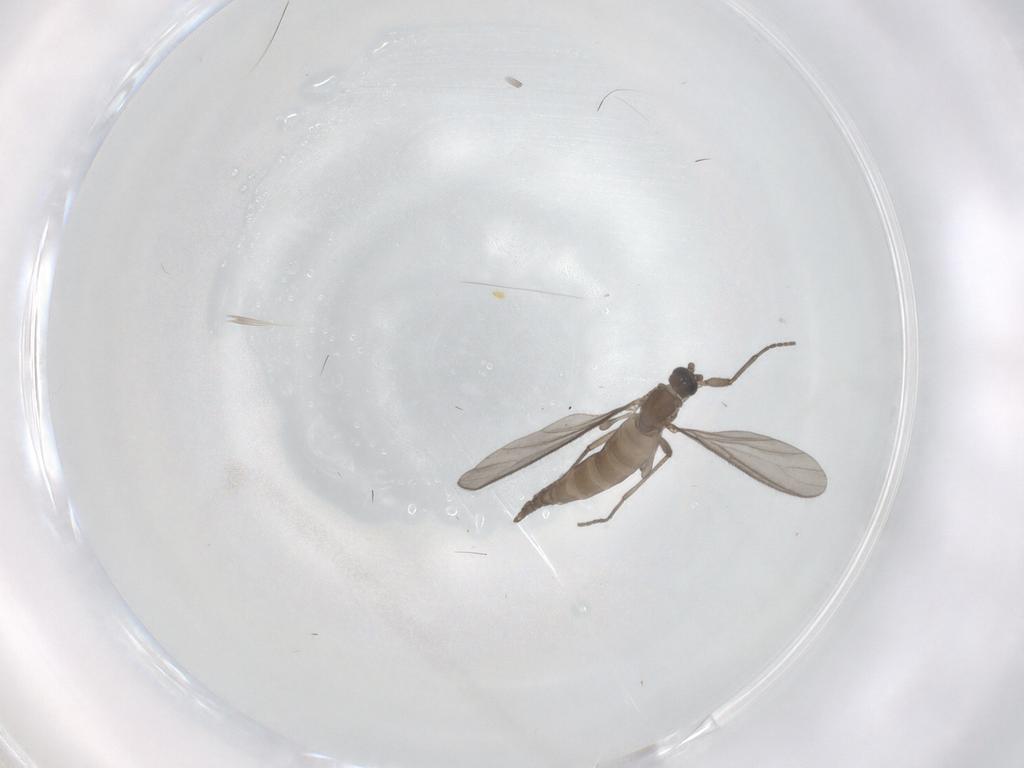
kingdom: Animalia
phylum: Arthropoda
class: Insecta
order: Diptera
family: Sciaridae
